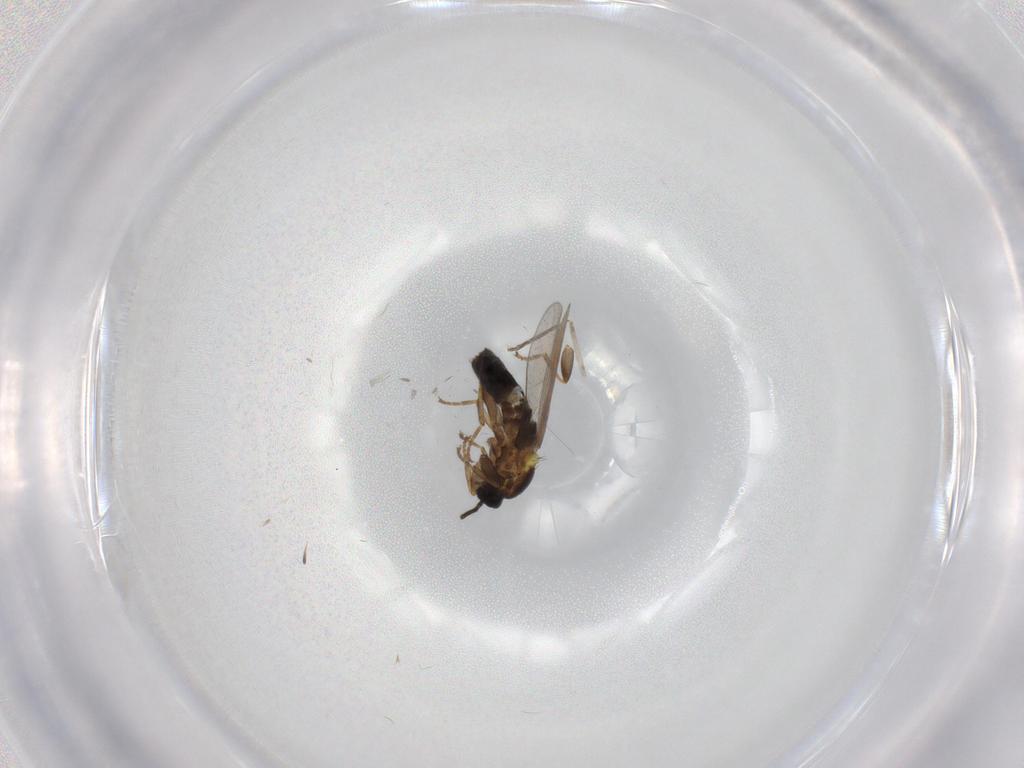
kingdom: Animalia
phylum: Arthropoda
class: Insecta
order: Diptera
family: Scatopsidae
